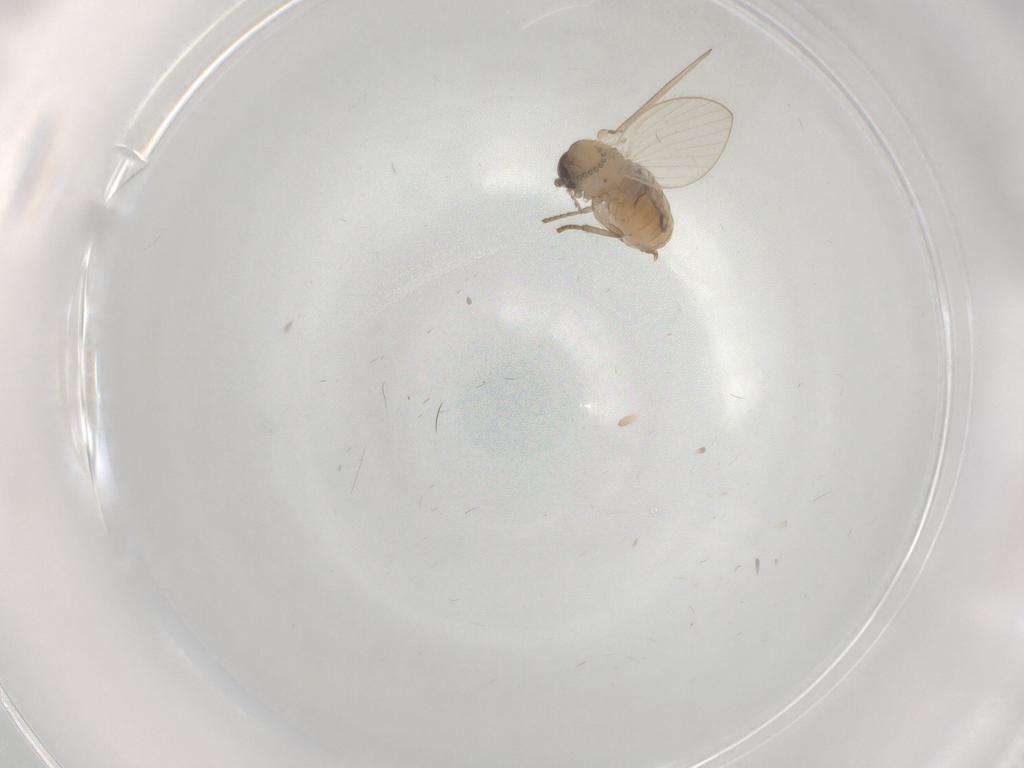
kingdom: Animalia
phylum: Arthropoda
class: Insecta
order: Diptera
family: Psychodidae
